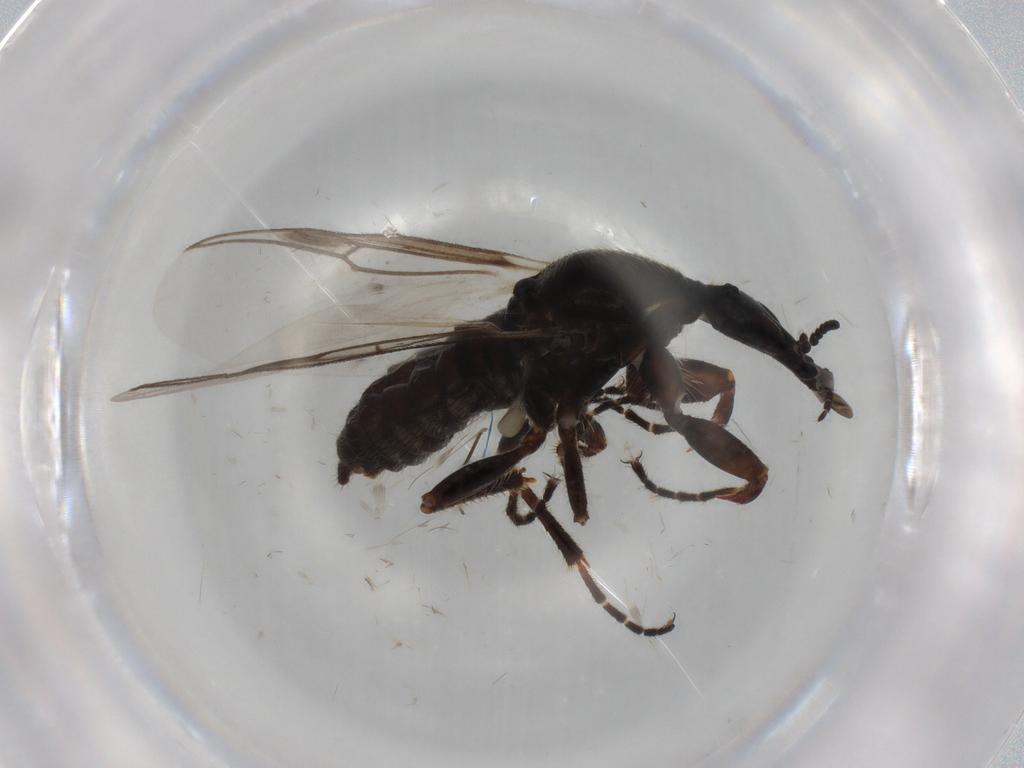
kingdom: Animalia
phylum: Arthropoda
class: Insecta
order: Diptera
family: Bibionidae
